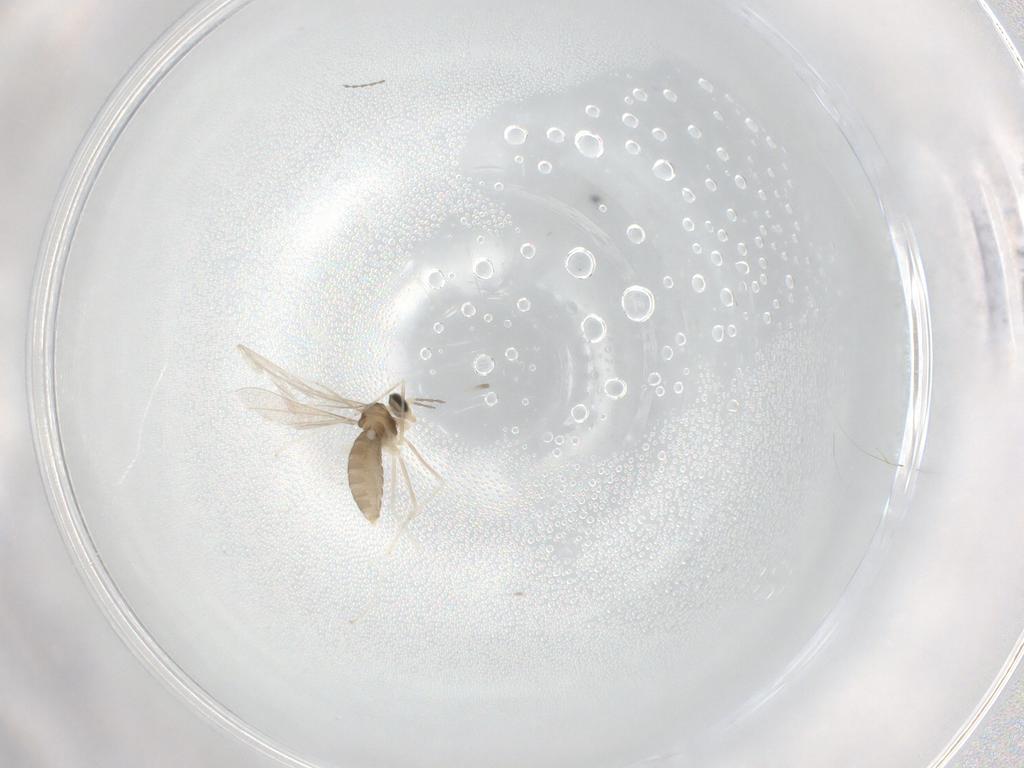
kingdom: Animalia
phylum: Arthropoda
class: Insecta
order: Diptera
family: Cecidomyiidae
